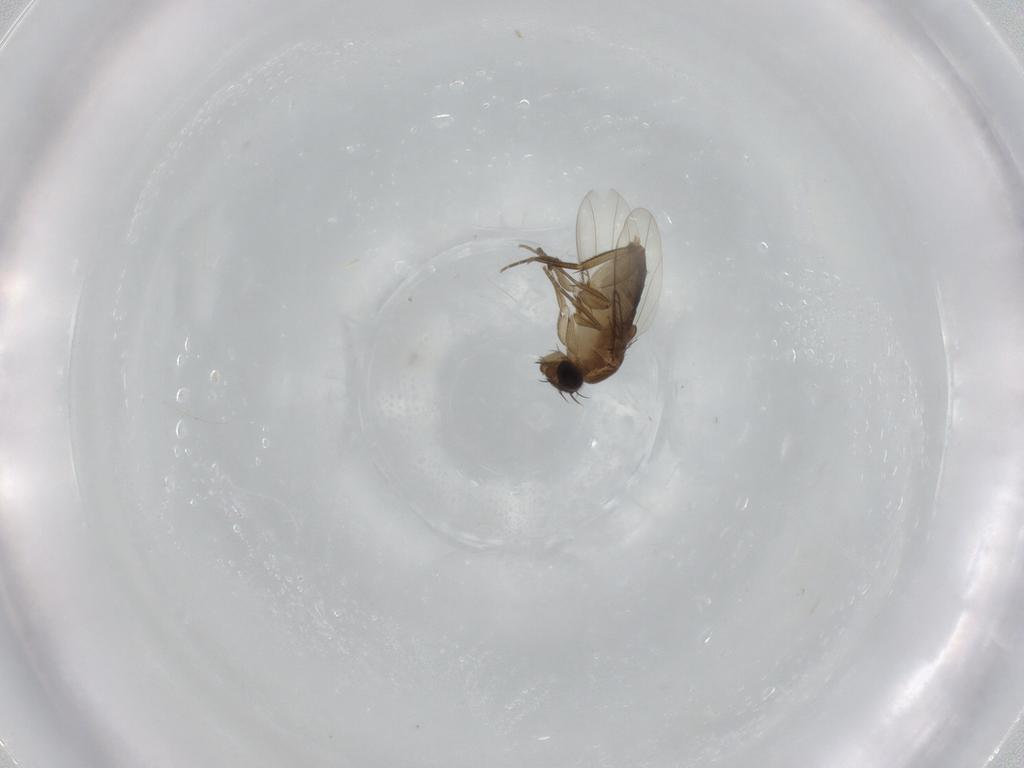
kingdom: Animalia
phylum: Arthropoda
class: Insecta
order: Diptera
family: Phoridae
